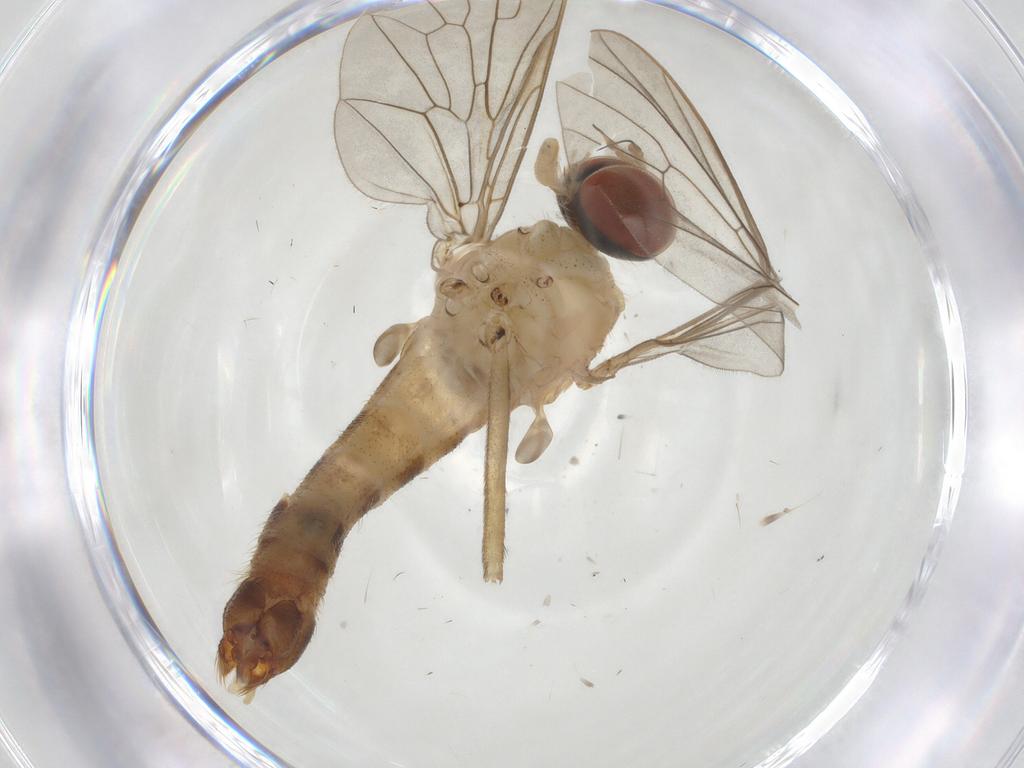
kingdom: Animalia
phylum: Arthropoda
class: Insecta
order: Diptera
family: Apsilocephalidae
